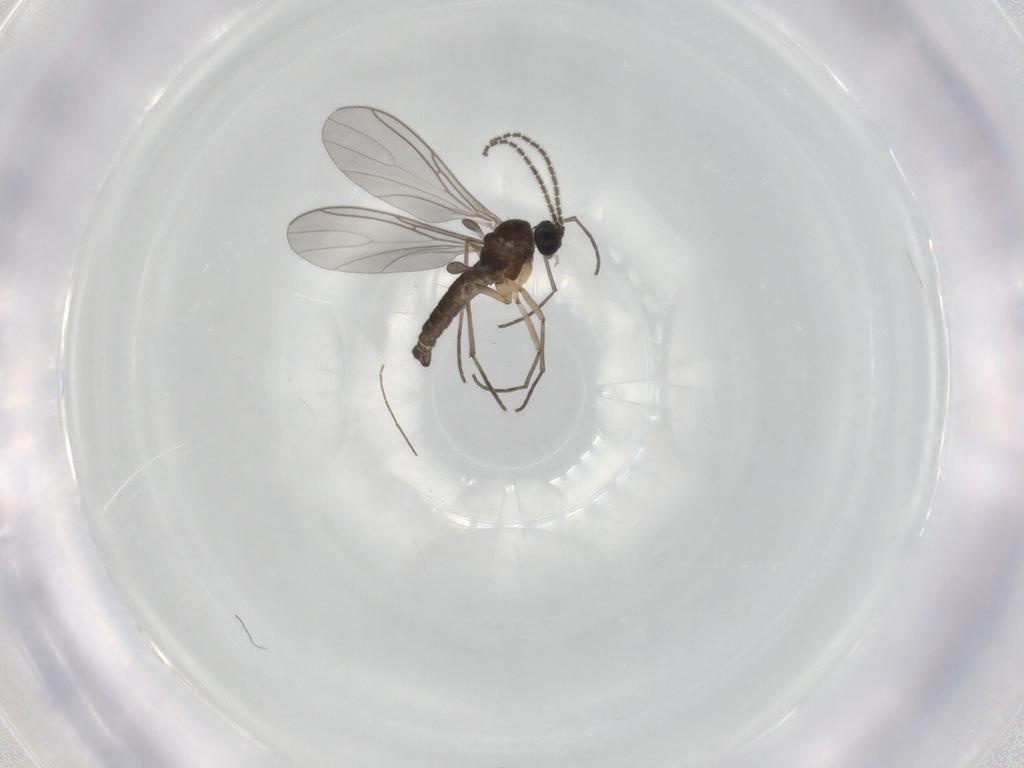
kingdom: Animalia
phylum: Arthropoda
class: Insecta
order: Diptera
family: Sciaridae
